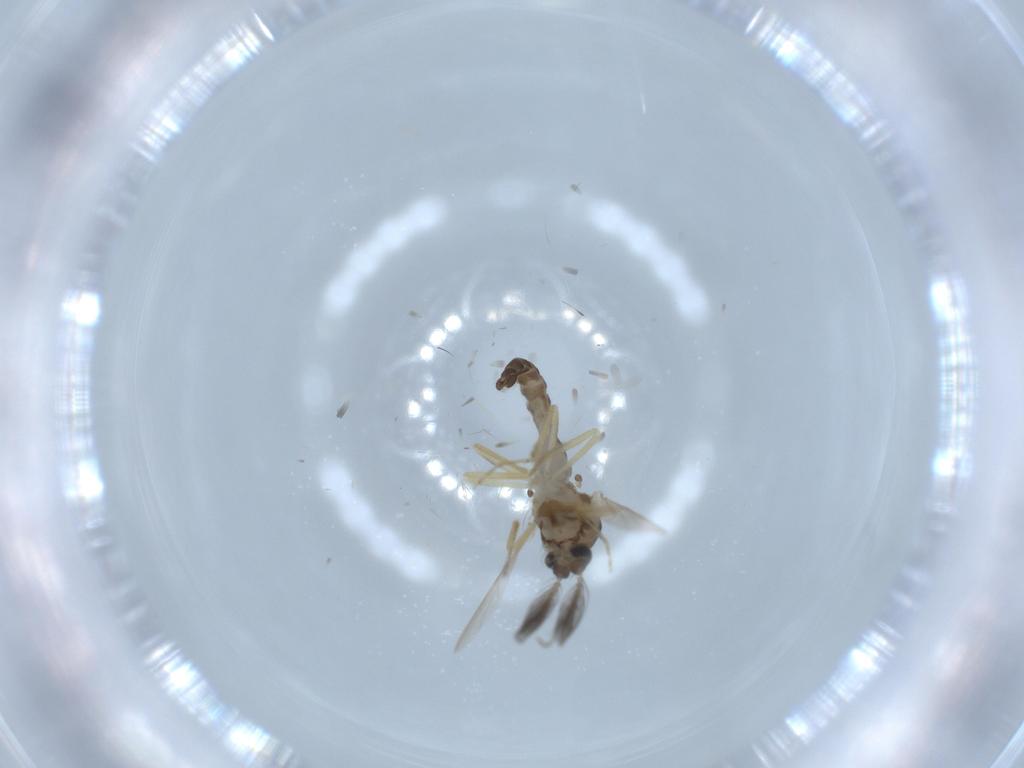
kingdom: Animalia
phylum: Arthropoda
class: Insecta
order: Diptera
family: Ceratopogonidae
